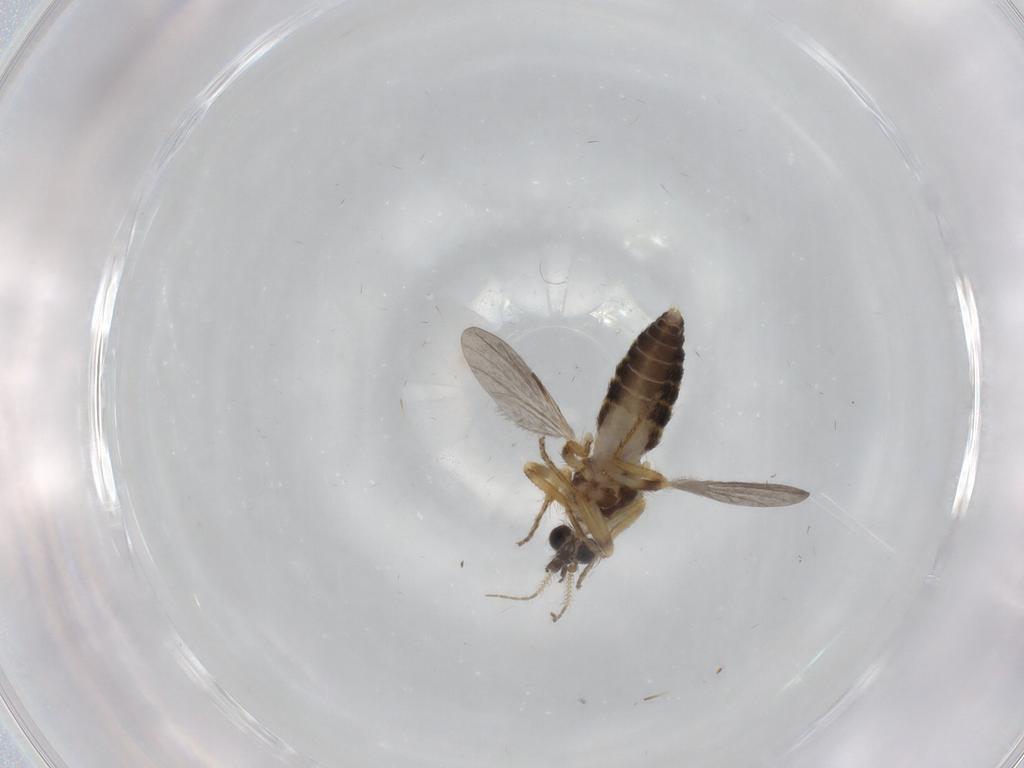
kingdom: Animalia
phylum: Arthropoda
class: Insecta
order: Diptera
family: Ceratopogonidae
